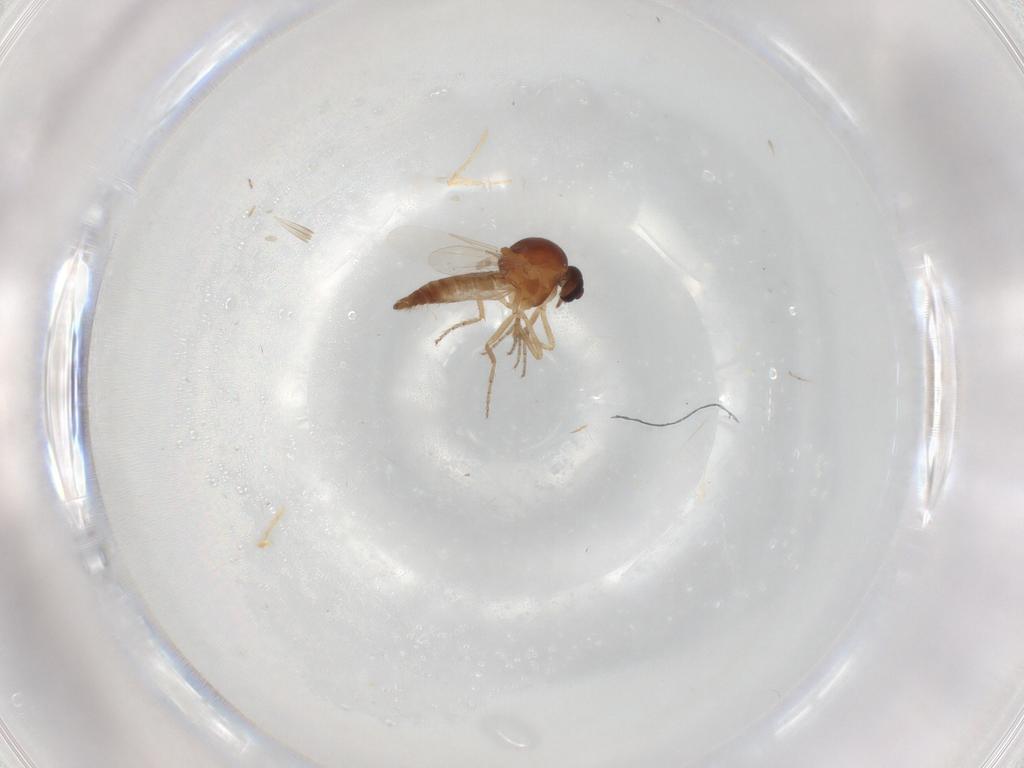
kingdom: Animalia
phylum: Arthropoda
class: Insecta
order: Diptera
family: Ceratopogonidae
